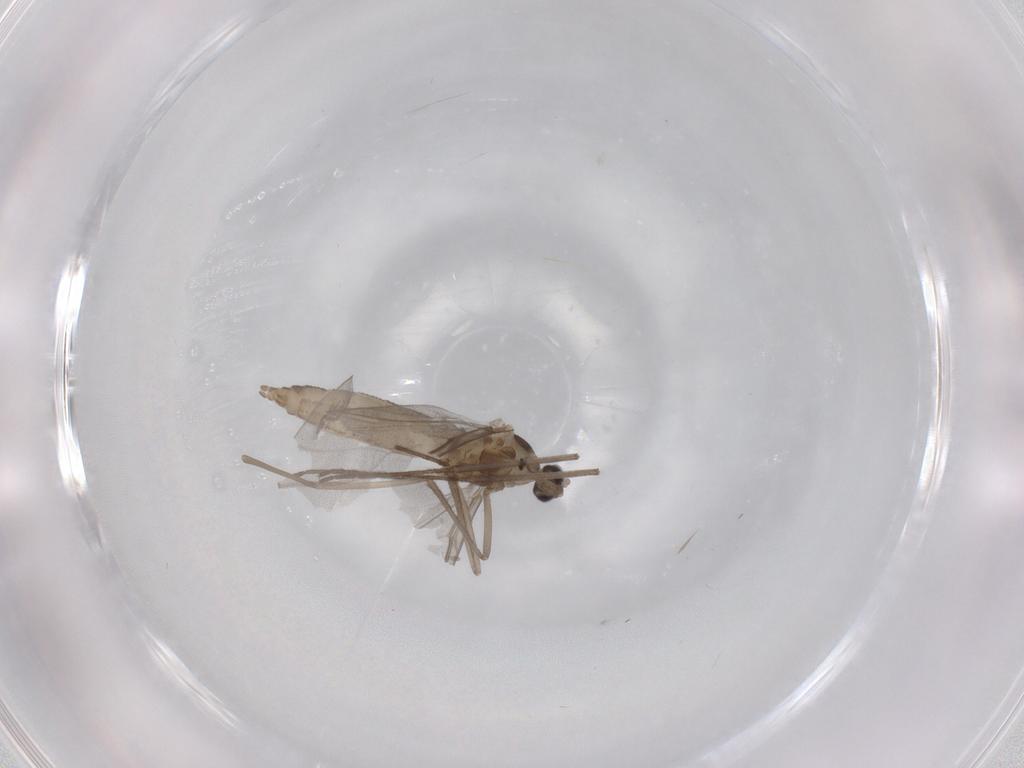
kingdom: Animalia
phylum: Arthropoda
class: Insecta
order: Diptera
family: Cecidomyiidae
